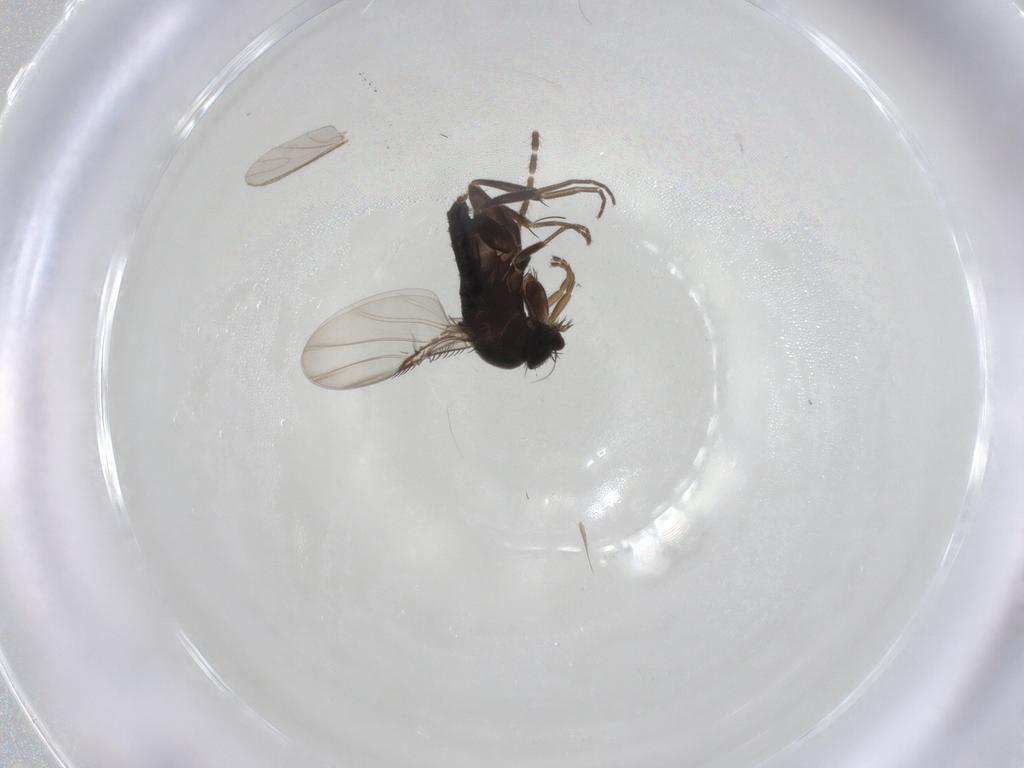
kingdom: Animalia
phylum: Arthropoda
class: Insecta
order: Diptera
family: Phoridae
